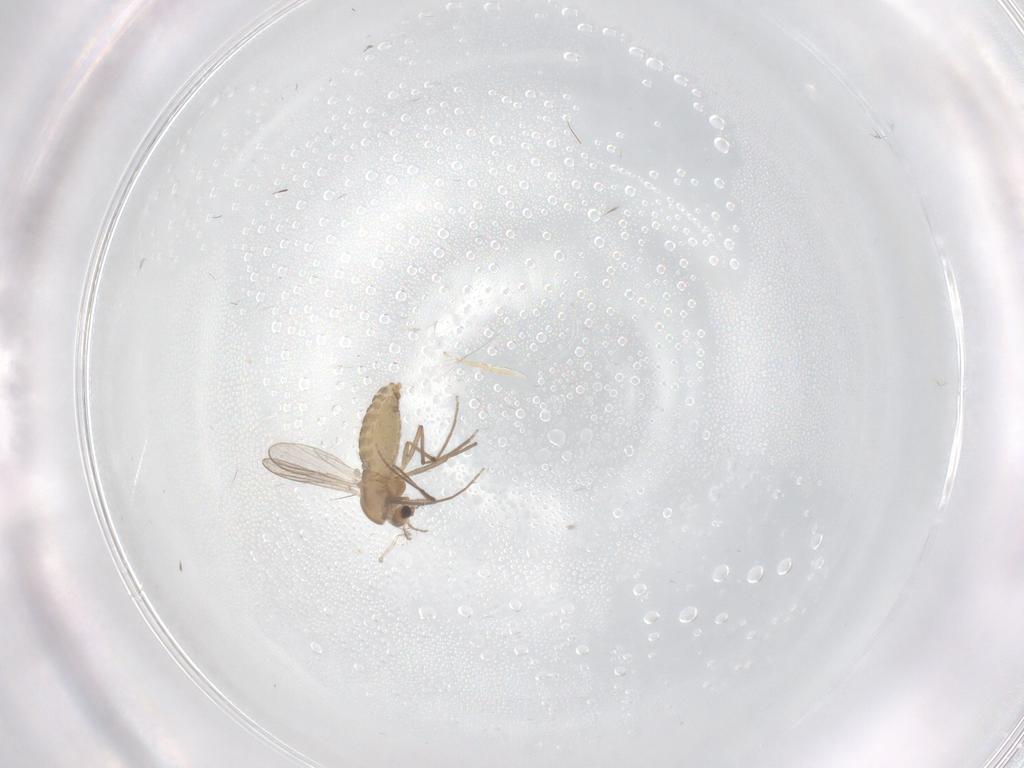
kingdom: Animalia
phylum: Arthropoda
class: Insecta
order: Diptera
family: Chironomidae
